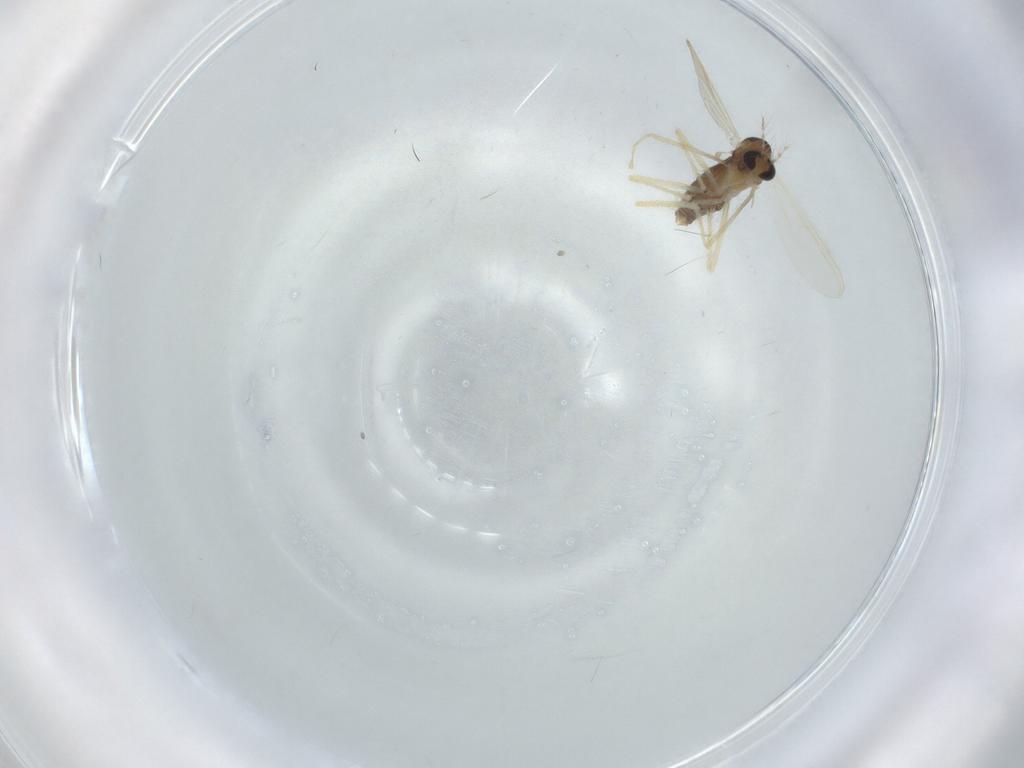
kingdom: Animalia
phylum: Arthropoda
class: Insecta
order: Diptera
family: Chironomidae
